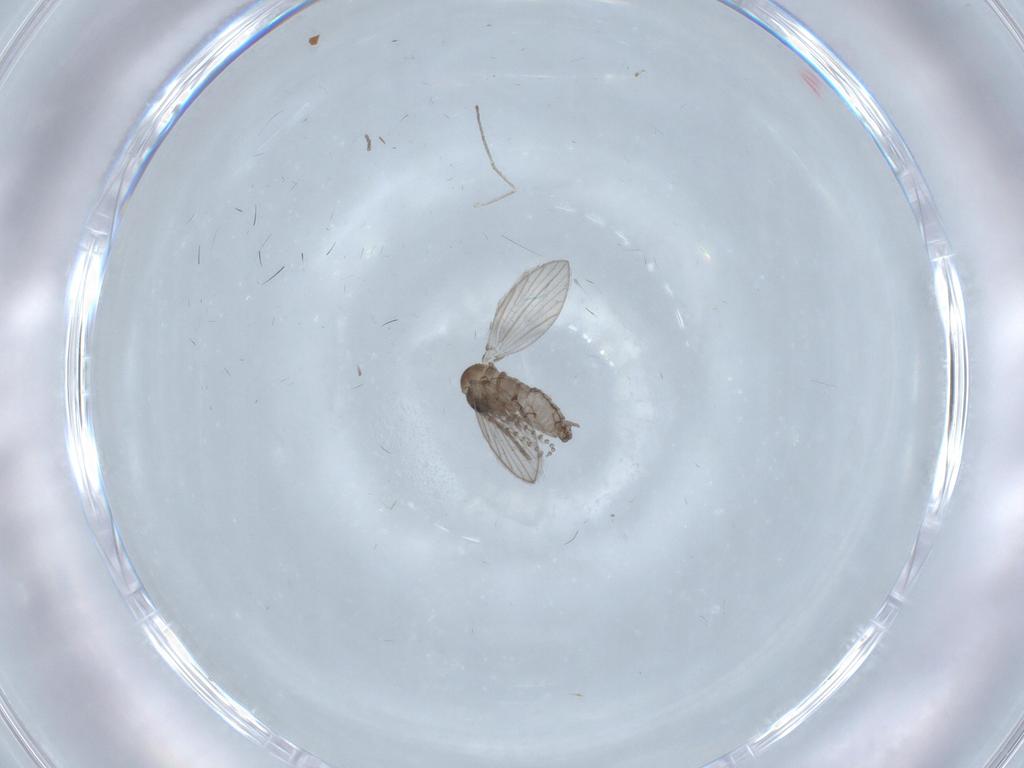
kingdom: Animalia
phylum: Arthropoda
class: Insecta
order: Diptera
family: Psychodidae
